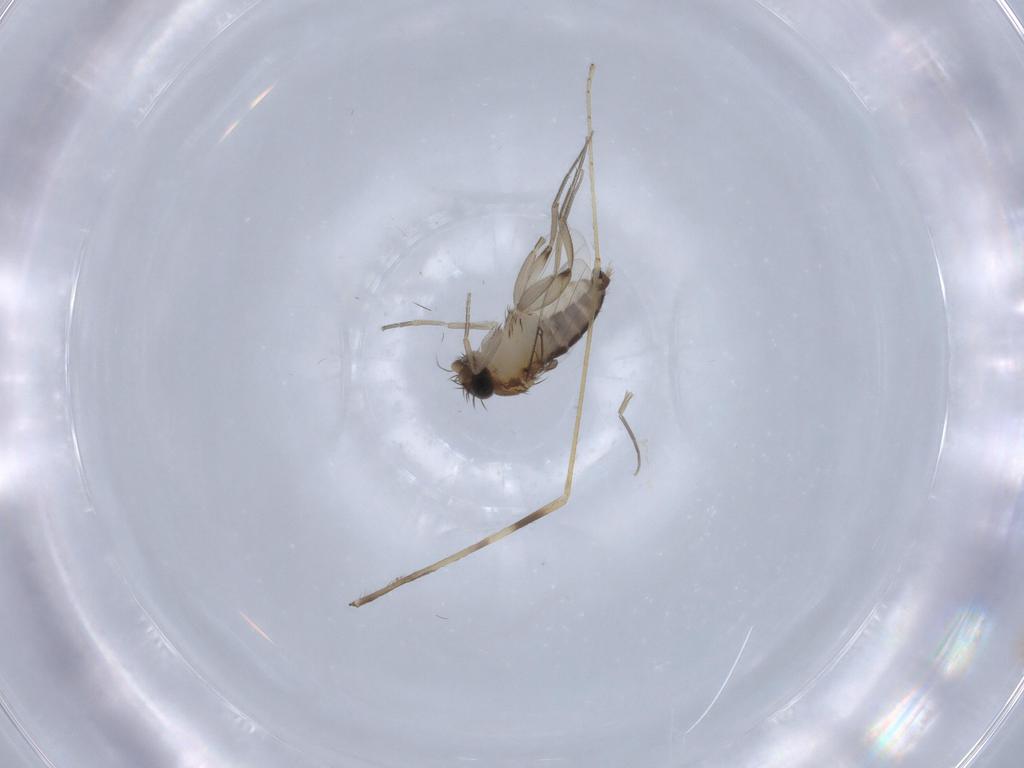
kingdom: Animalia
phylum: Arthropoda
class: Insecta
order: Diptera
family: Phoridae
